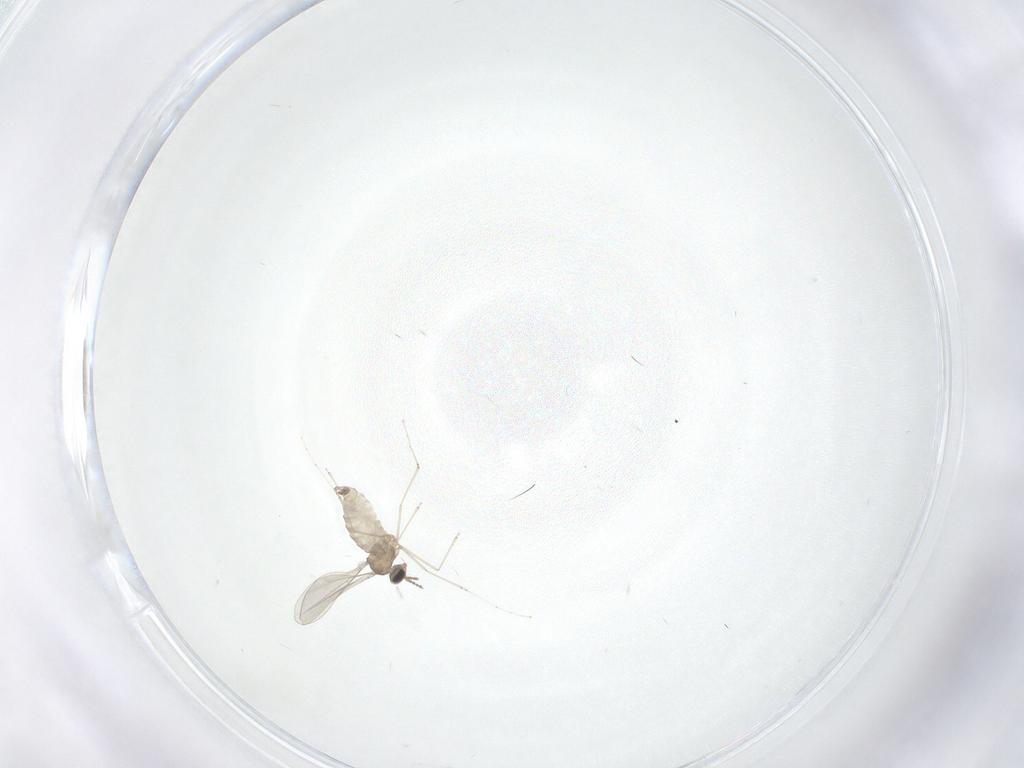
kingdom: Animalia
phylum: Arthropoda
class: Insecta
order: Diptera
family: Cecidomyiidae
